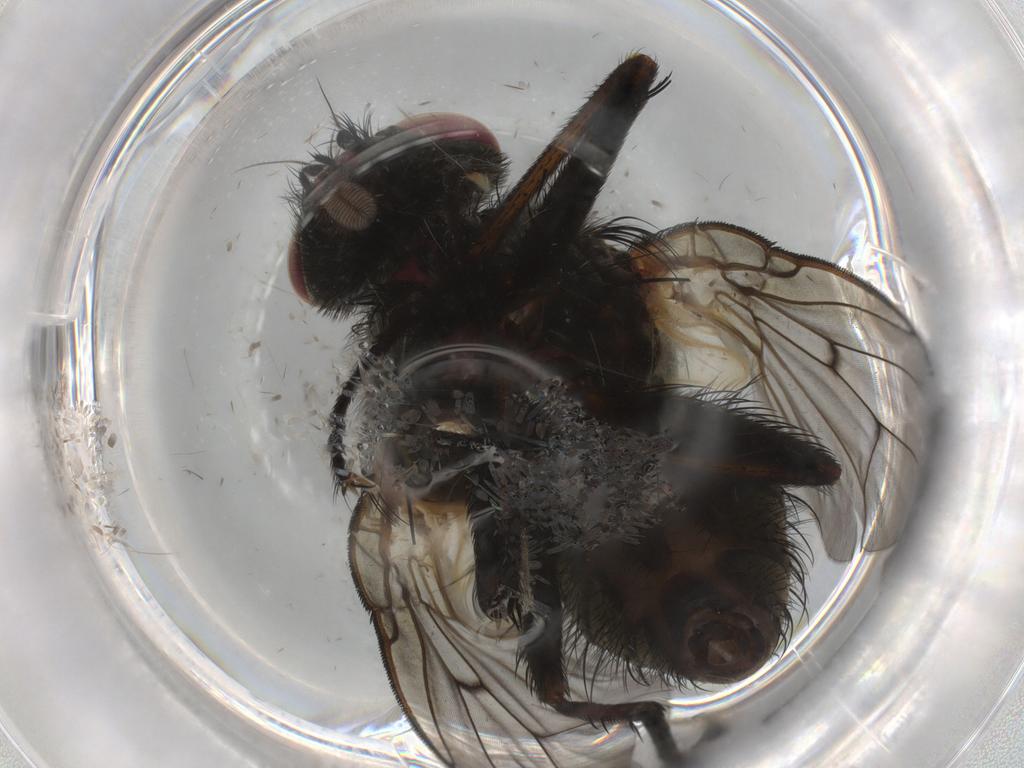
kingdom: Animalia
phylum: Arthropoda
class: Insecta
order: Diptera
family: Muscidae
